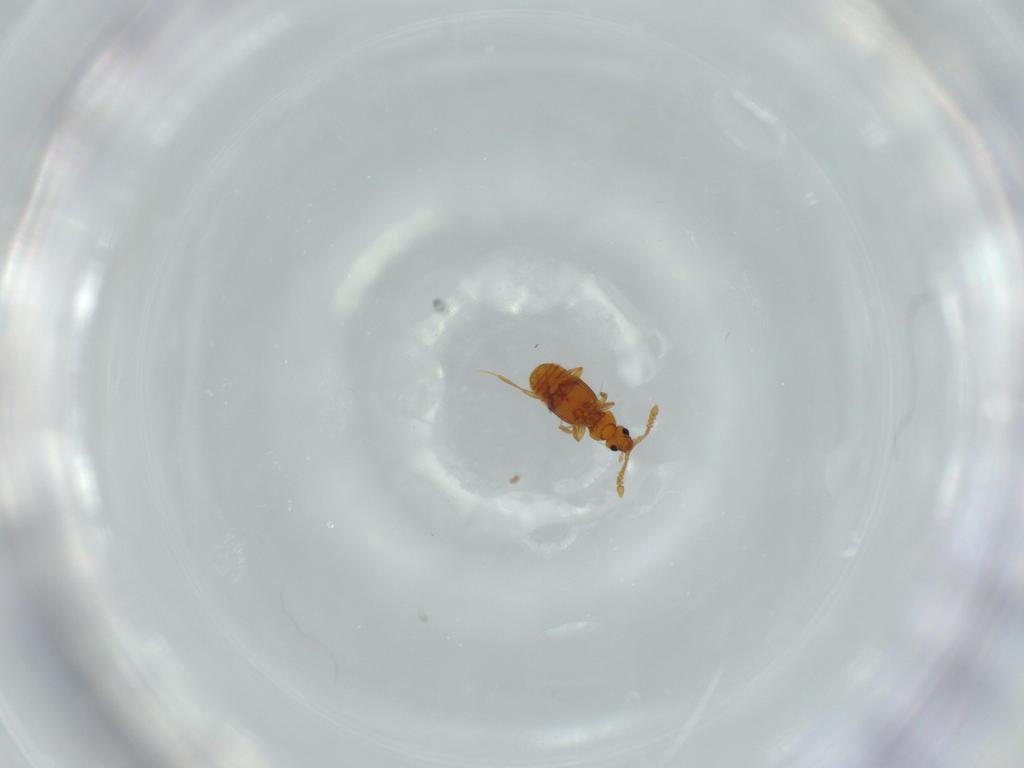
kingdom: Animalia
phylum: Arthropoda
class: Insecta
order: Coleoptera
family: Staphylinidae
